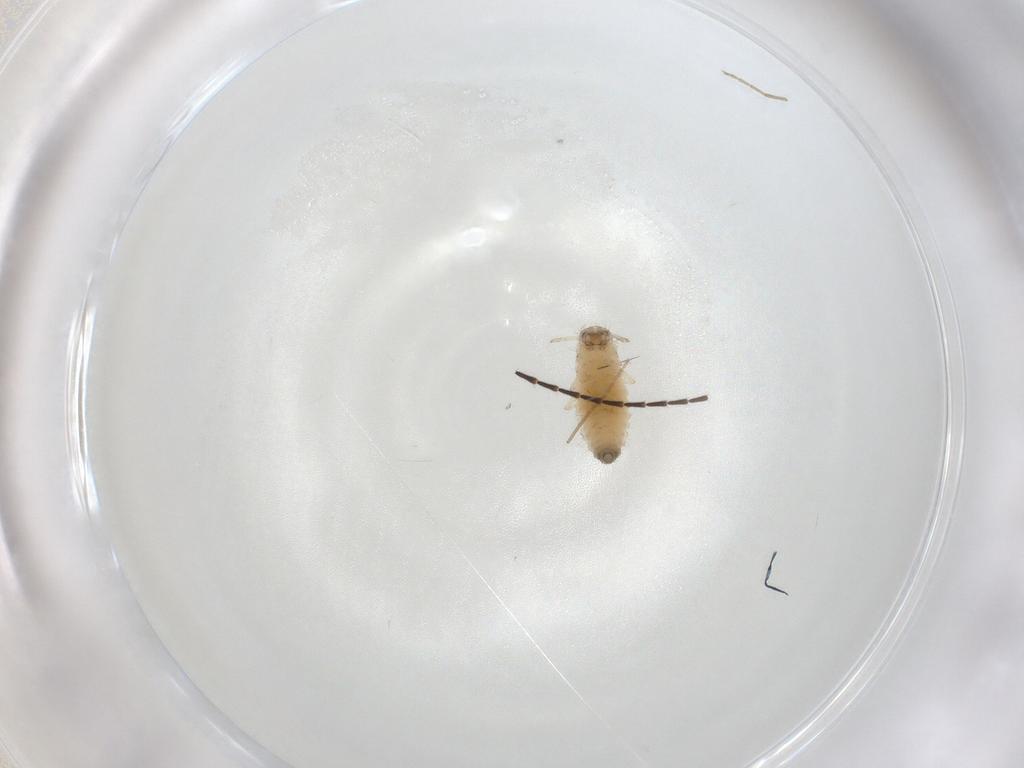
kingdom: Animalia
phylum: Arthropoda
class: Insecta
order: Coleoptera
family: Staphylinidae
